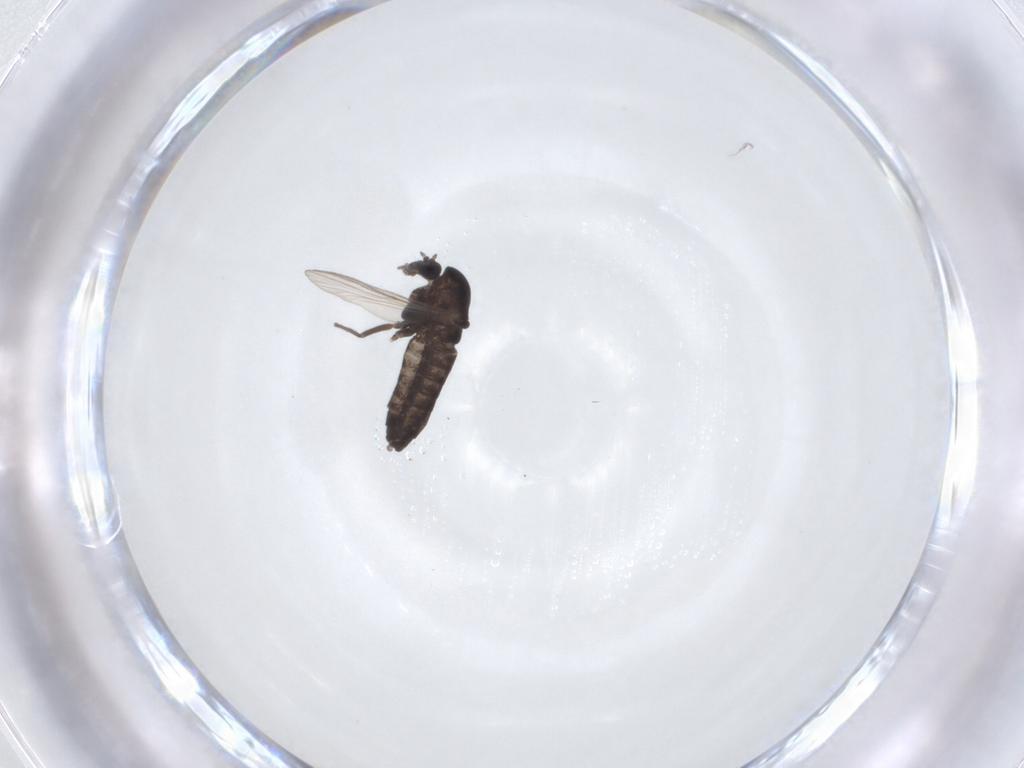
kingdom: Animalia
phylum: Arthropoda
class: Insecta
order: Diptera
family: Chironomidae
